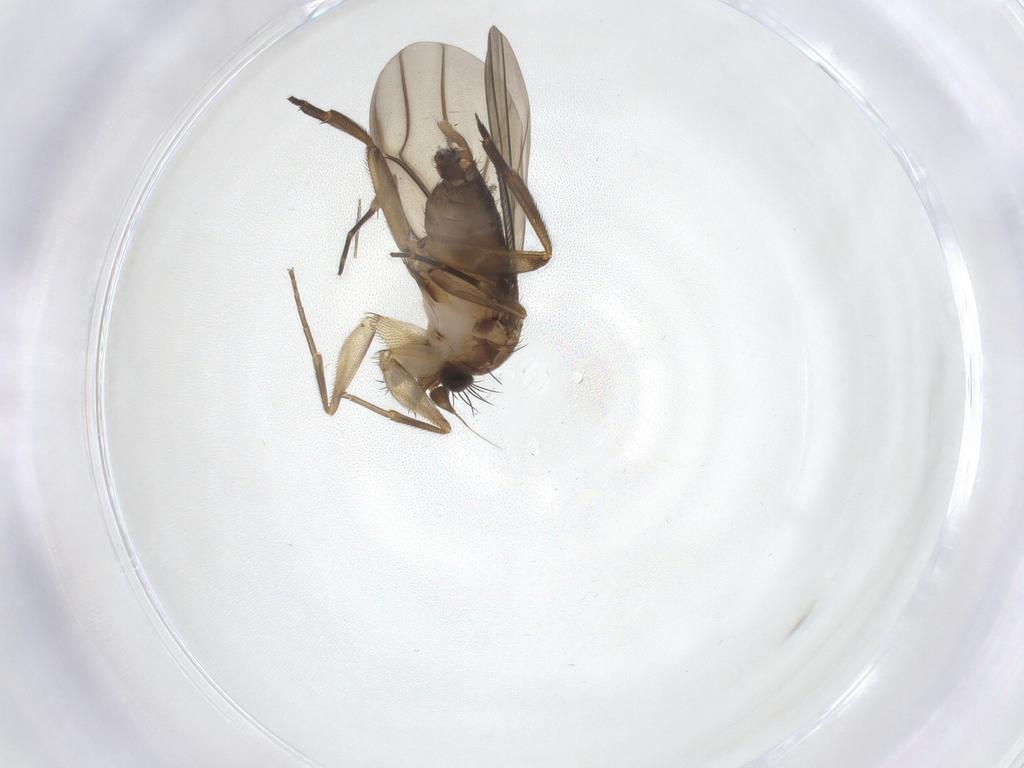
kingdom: Animalia
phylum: Arthropoda
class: Insecta
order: Diptera
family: Phoridae
